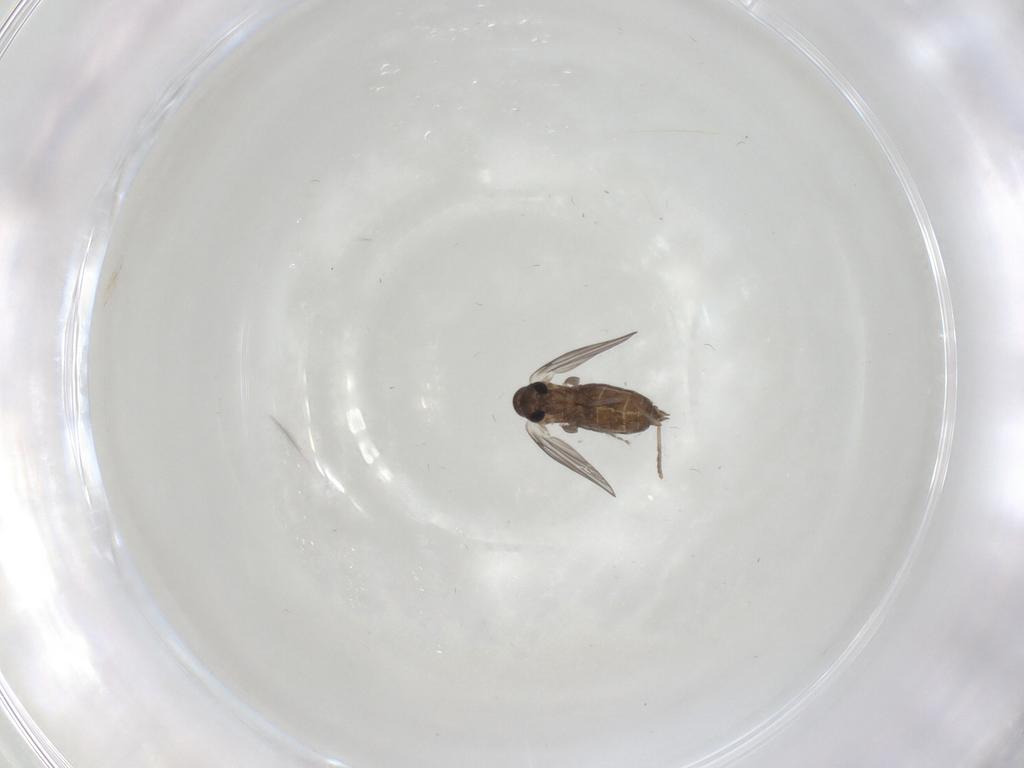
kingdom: Animalia
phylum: Arthropoda
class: Insecta
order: Diptera
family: Psychodidae
